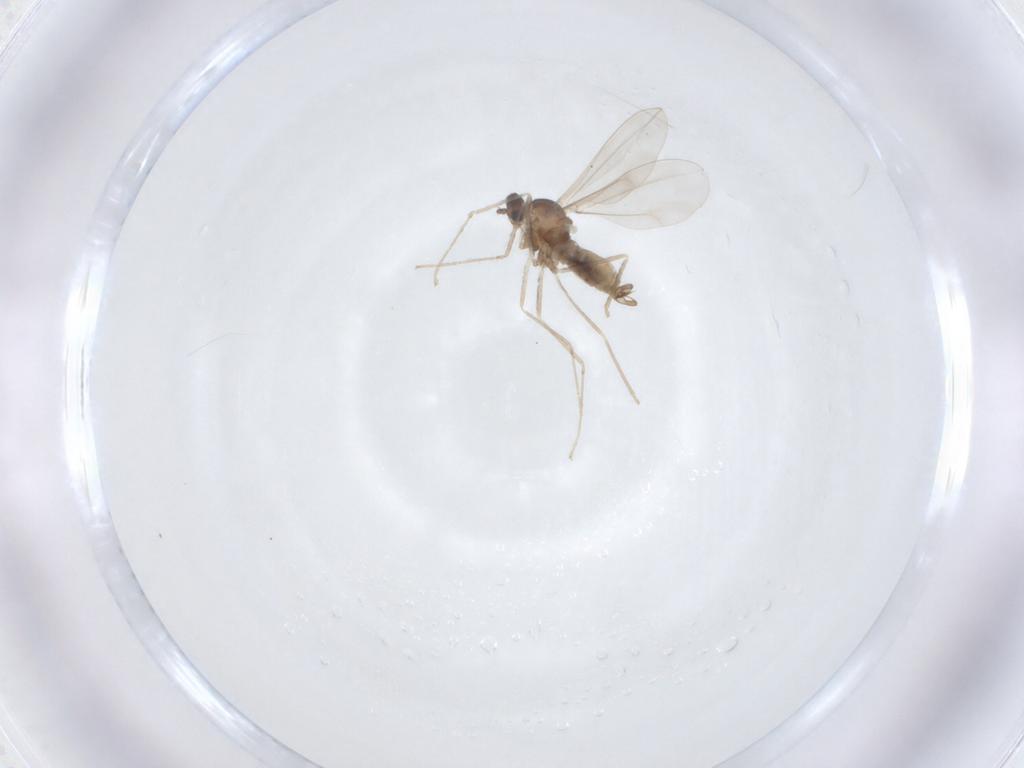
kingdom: Animalia
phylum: Arthropoda
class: Insecta
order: Diptera
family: Cecidomyiidae
